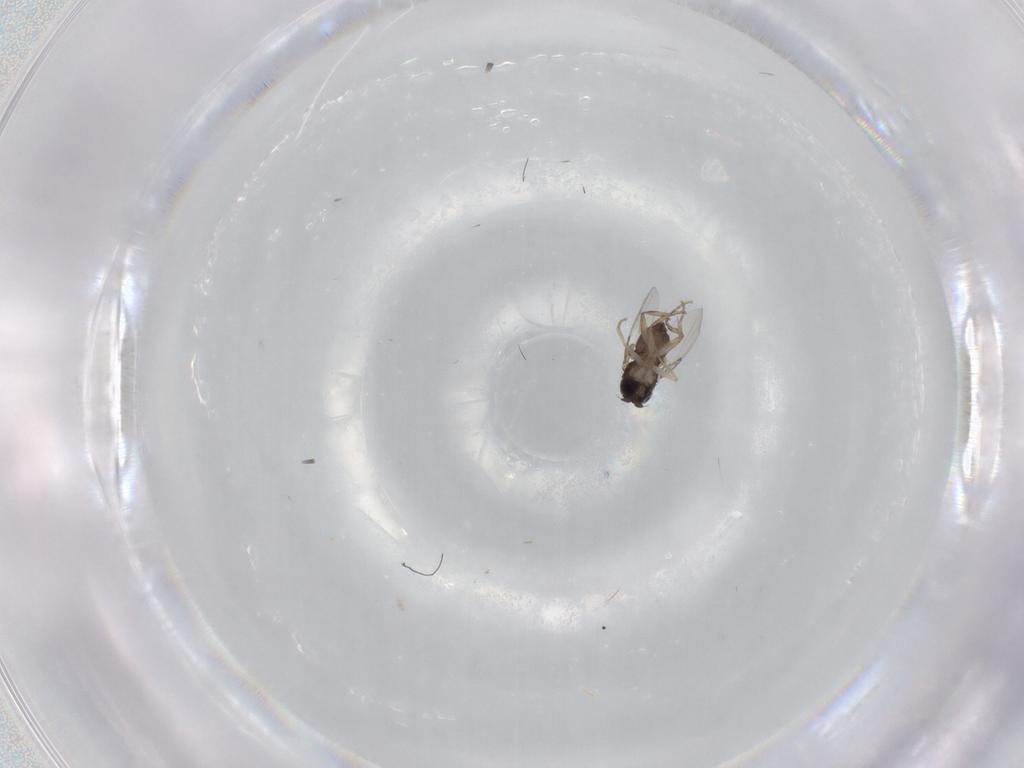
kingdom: Animalia
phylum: Arthropoda
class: Insecta
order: Diptera
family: Phoridae
